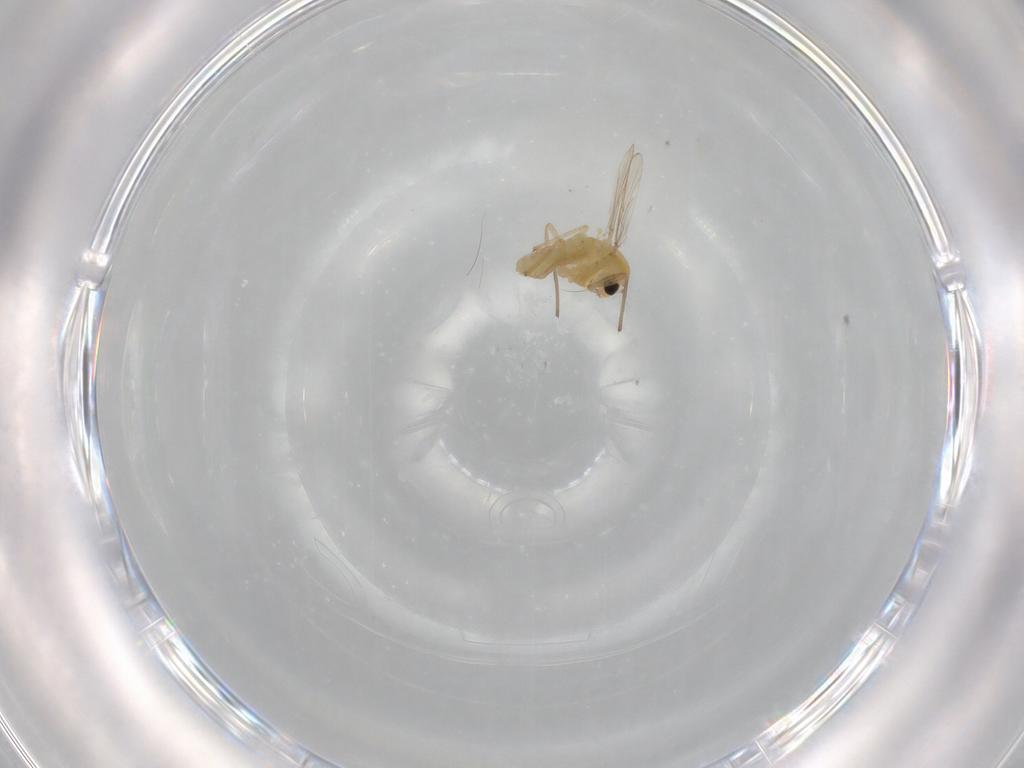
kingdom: Animalia
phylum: Arthropoda
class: Insecta
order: Diptera
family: Chironomidae
